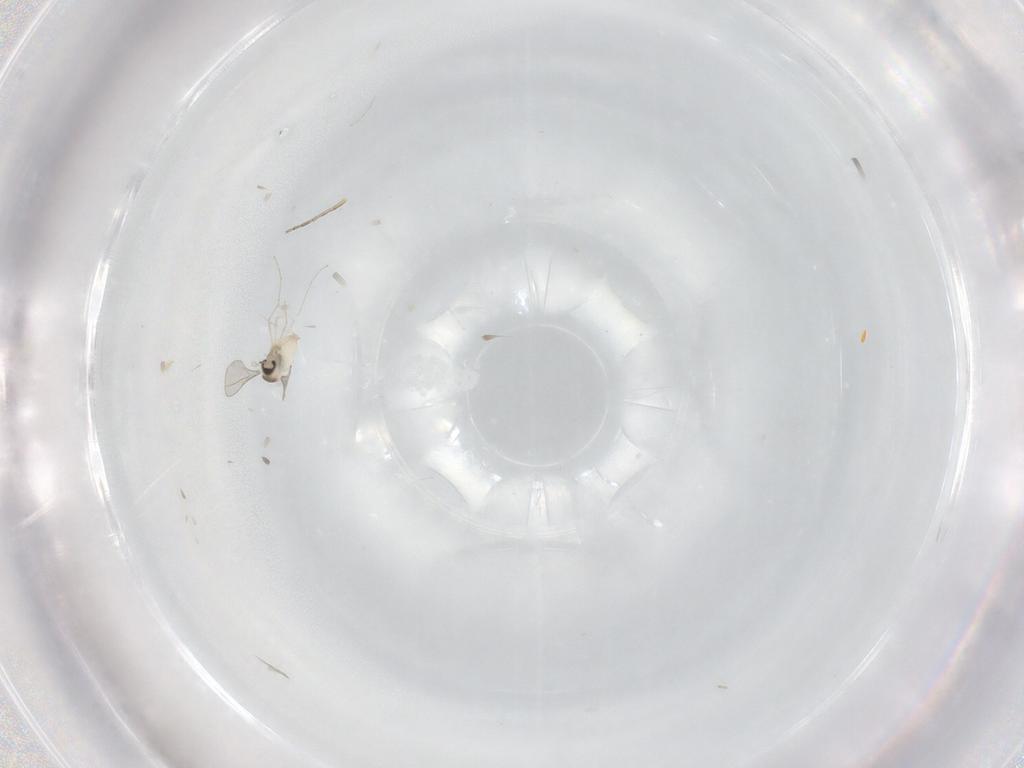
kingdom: Animalia
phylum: Arthropoda
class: Insecta
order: Diptera
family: Cecidomyiidae
